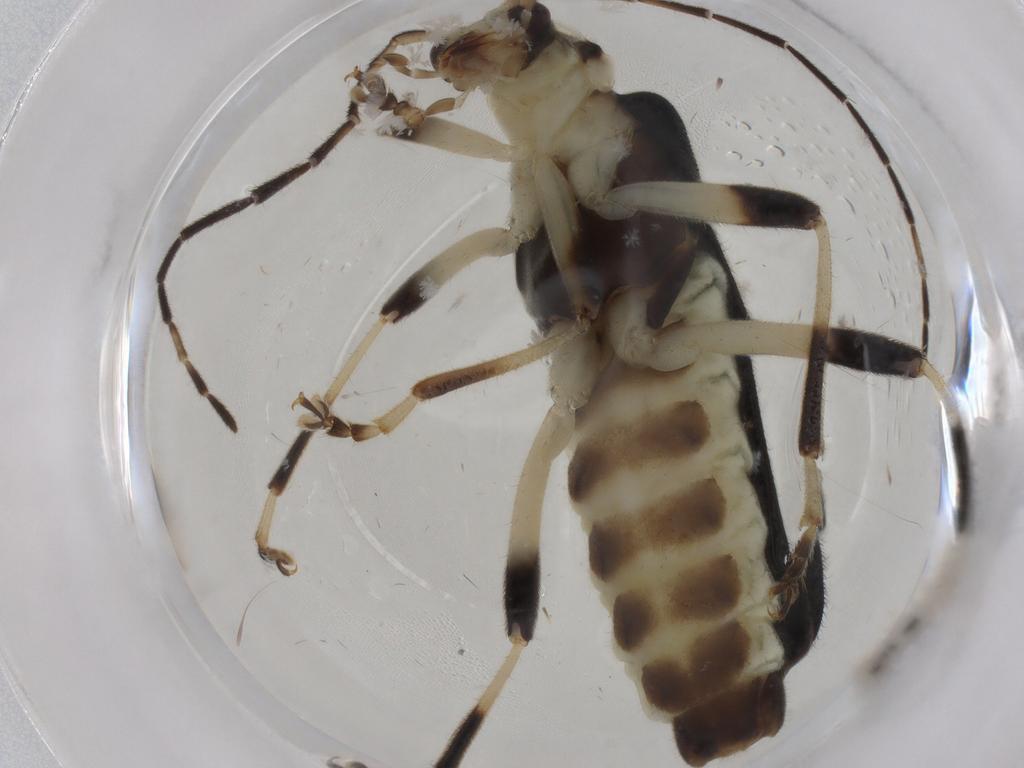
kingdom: Animalia
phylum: Arthropoda
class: Insecta
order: Coleoptera
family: Cantharidae
